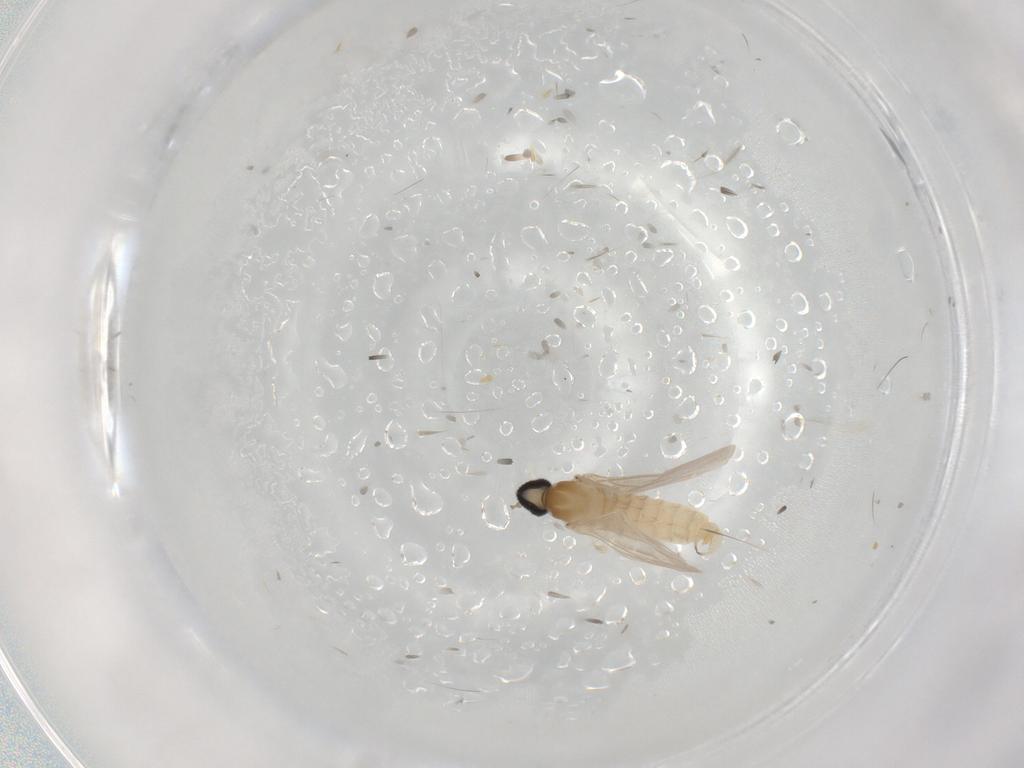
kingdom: Animalia
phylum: Arthropoda
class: Insecta
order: Diptera
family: Cecidomyiidae
